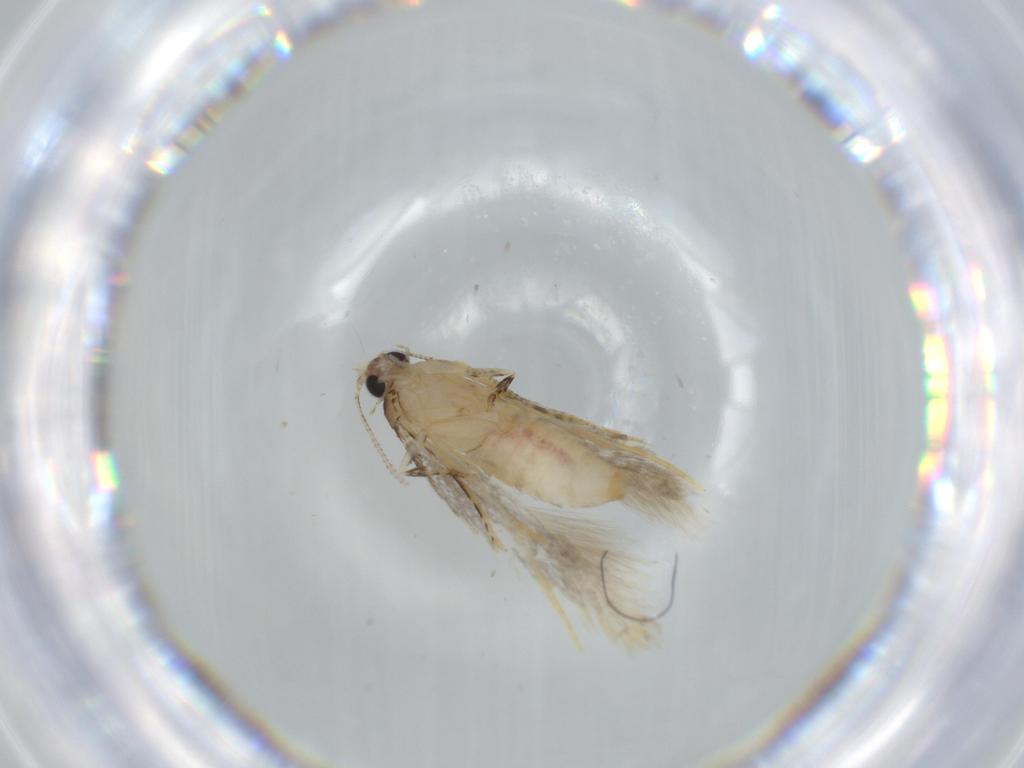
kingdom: Animalia
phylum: Arthropoda
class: Insecta
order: Lepidoptera
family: Tineidae
